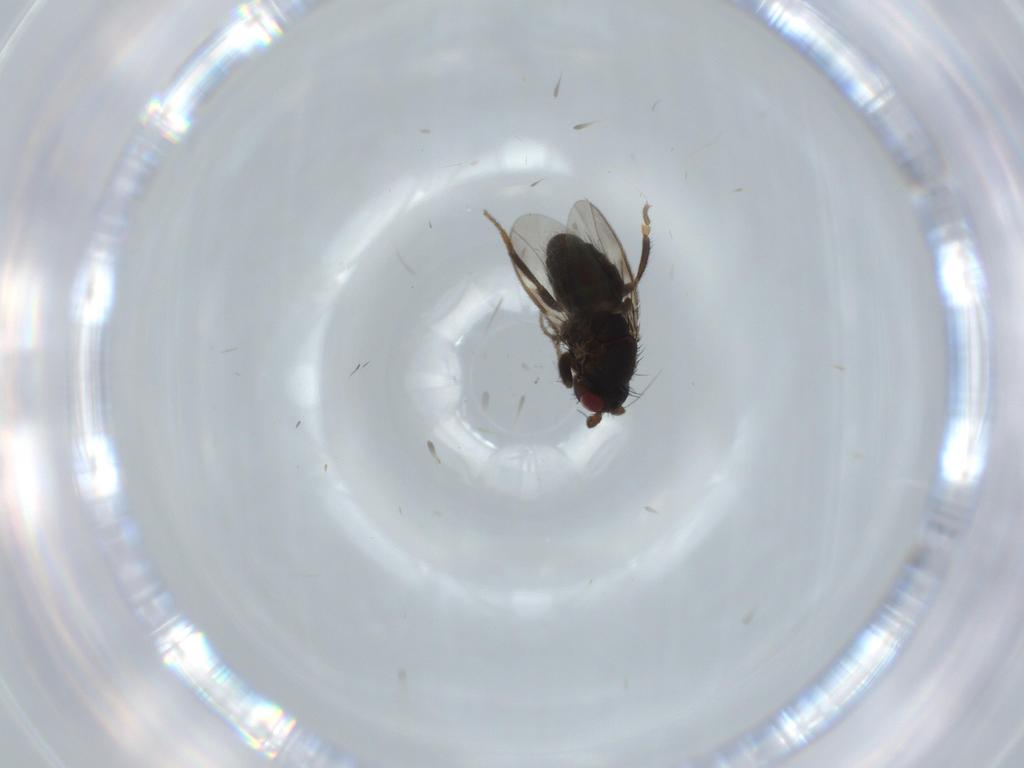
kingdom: Animalia
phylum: Arthropoda
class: Insecta
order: Diptera
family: Sphaeroceridae
